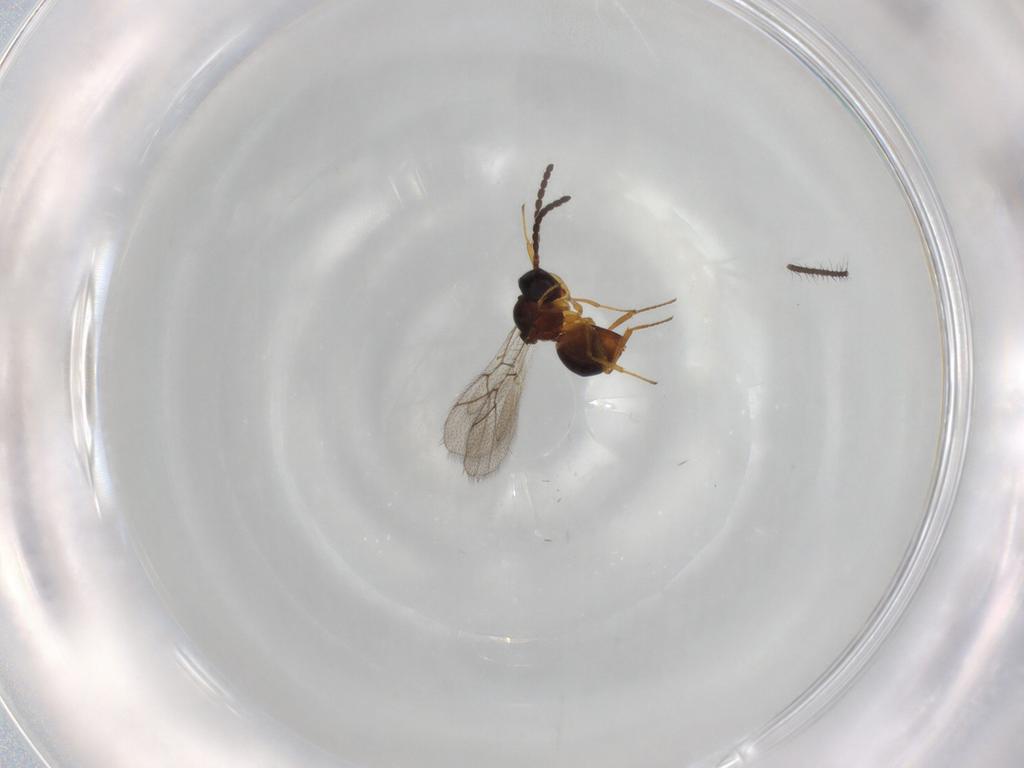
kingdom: Animalia
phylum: Arthropoda
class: Insecta
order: Hymenoptera
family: Figitidae
